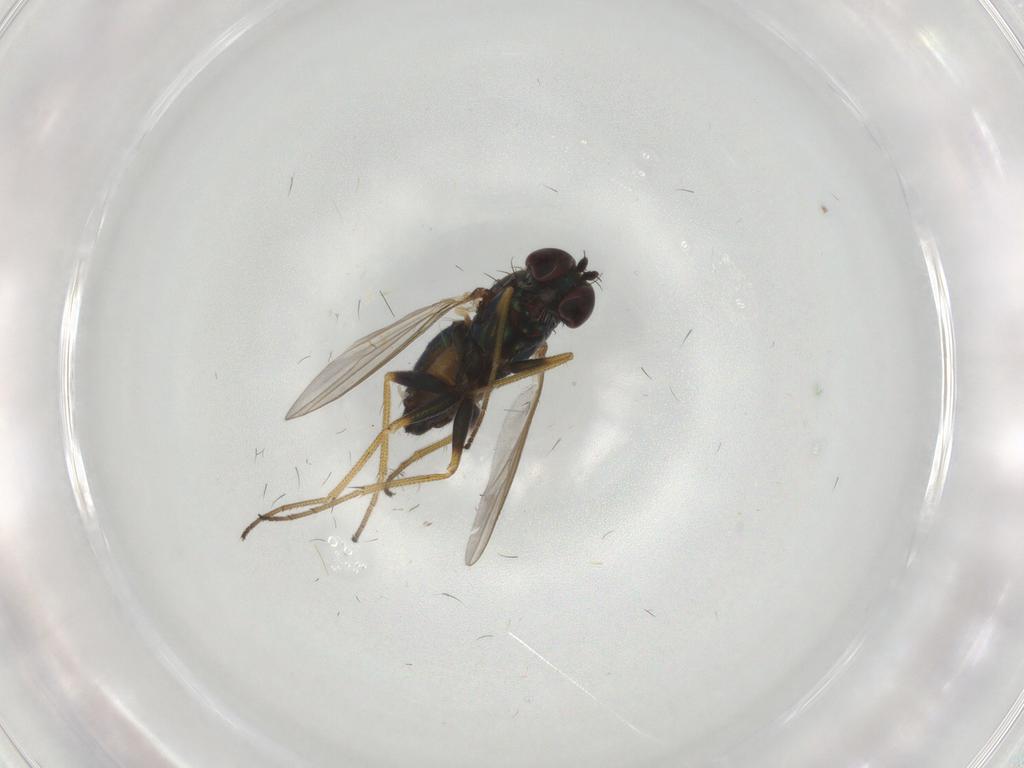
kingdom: Animalia
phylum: Arthropoda
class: Insecta
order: Diptera
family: Dolichopodidae
